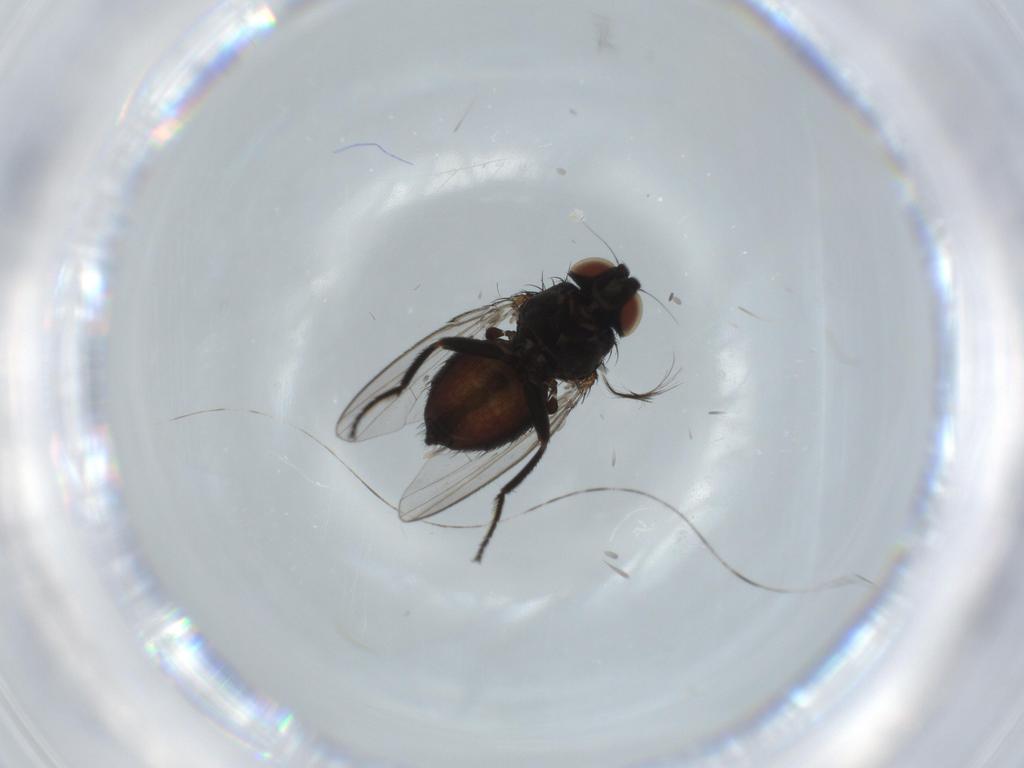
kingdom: Animalia
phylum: Arthropoda
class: Insecta
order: Diptera
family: Milichiidae
